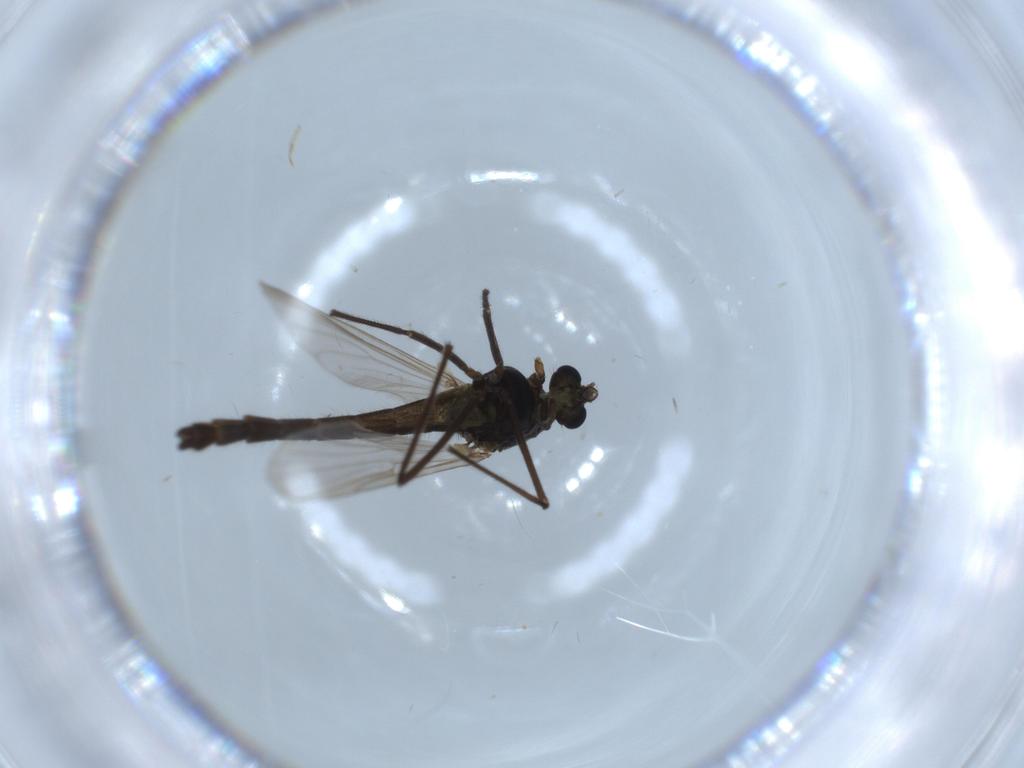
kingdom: Animalia
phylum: Arthropoda
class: Insecta
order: Diptera
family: Chironomidae
